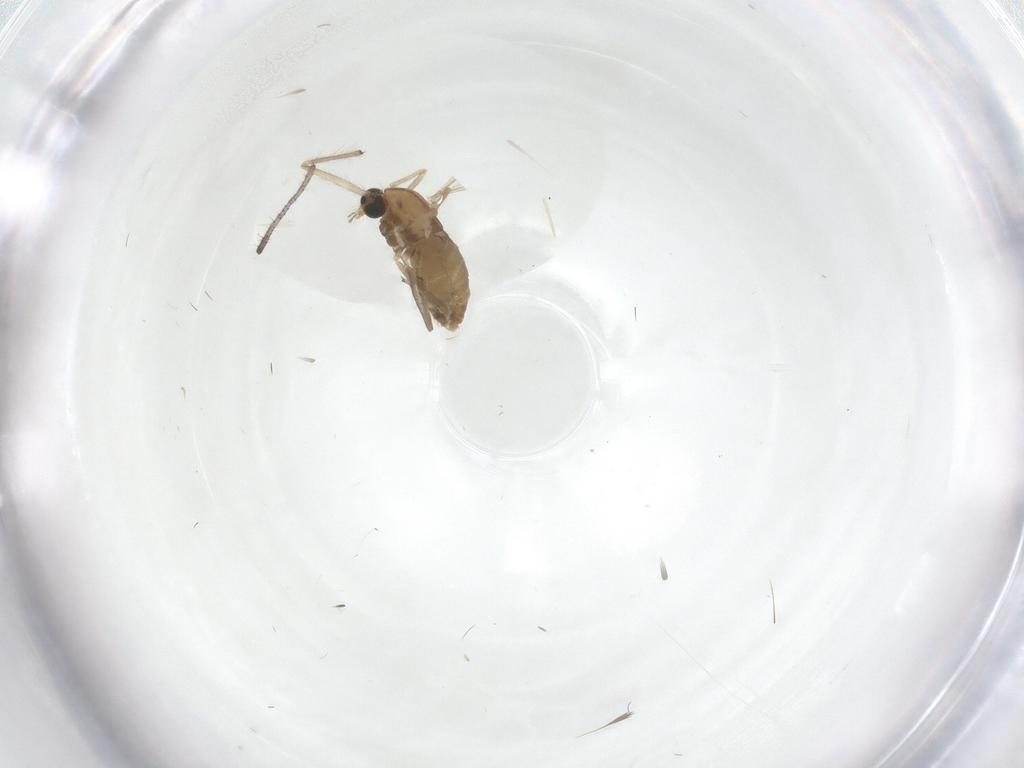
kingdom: Animalia
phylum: Arthropoda
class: Insecta
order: Diptera
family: Chironomidae
